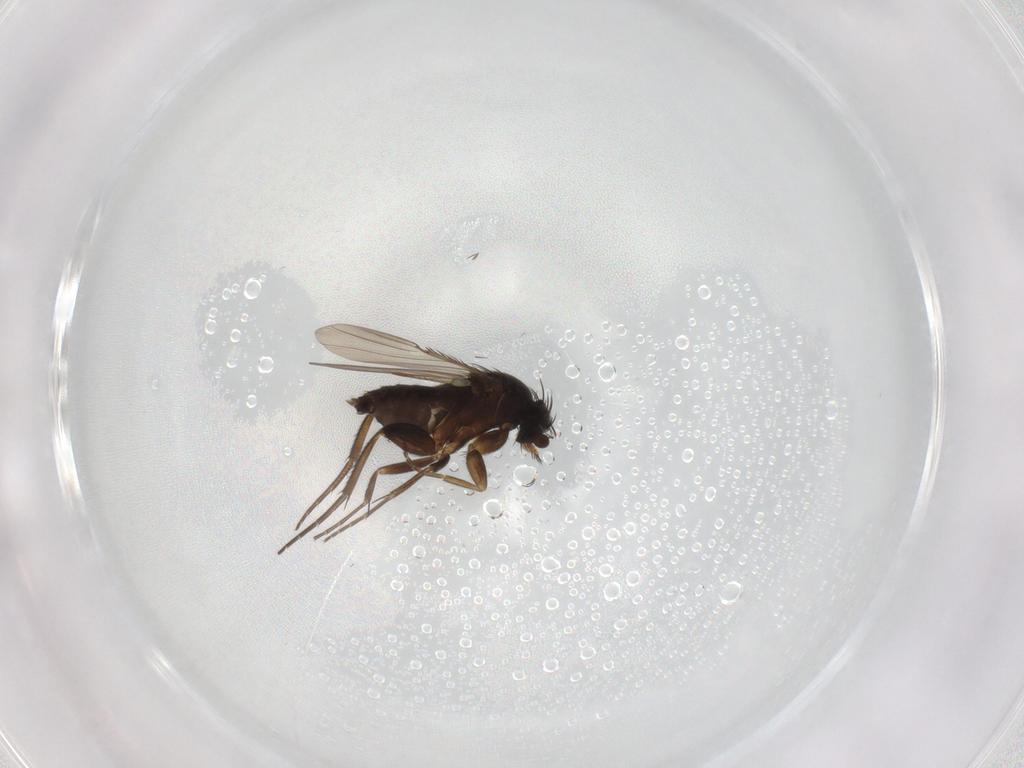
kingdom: Animalia
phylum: Arthropoda
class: Insecta
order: Diptera
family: Phoridae
